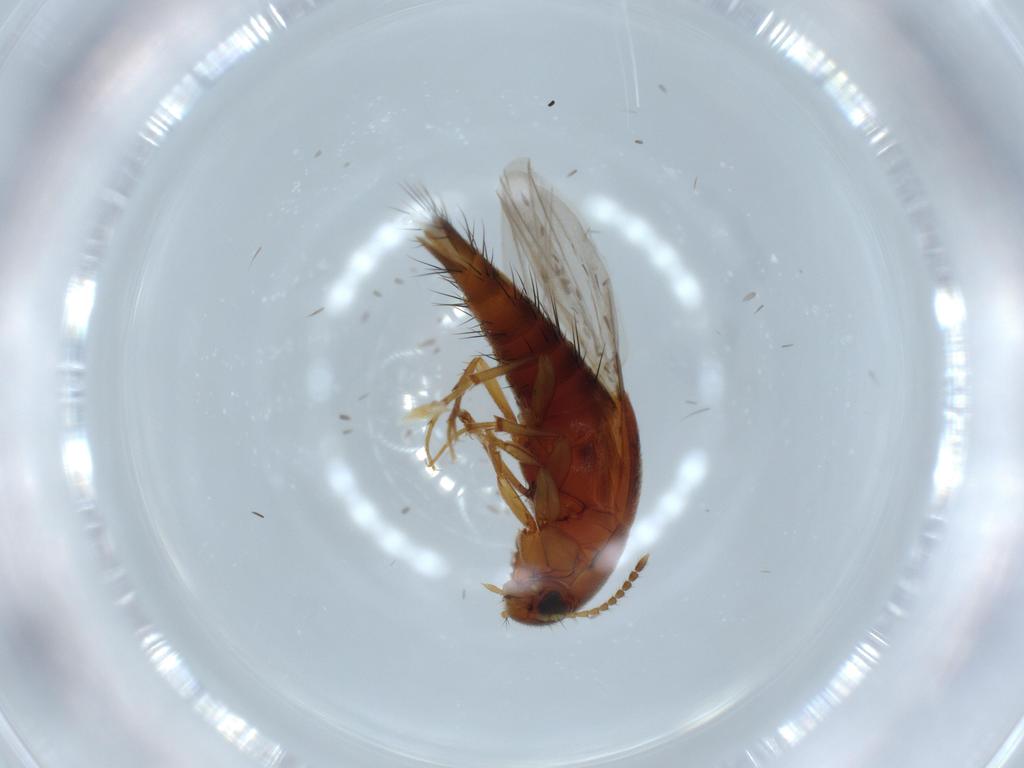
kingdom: Animalia
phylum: Arthropoda
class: Insecta
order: Coleoptera
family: Staphylinidae
